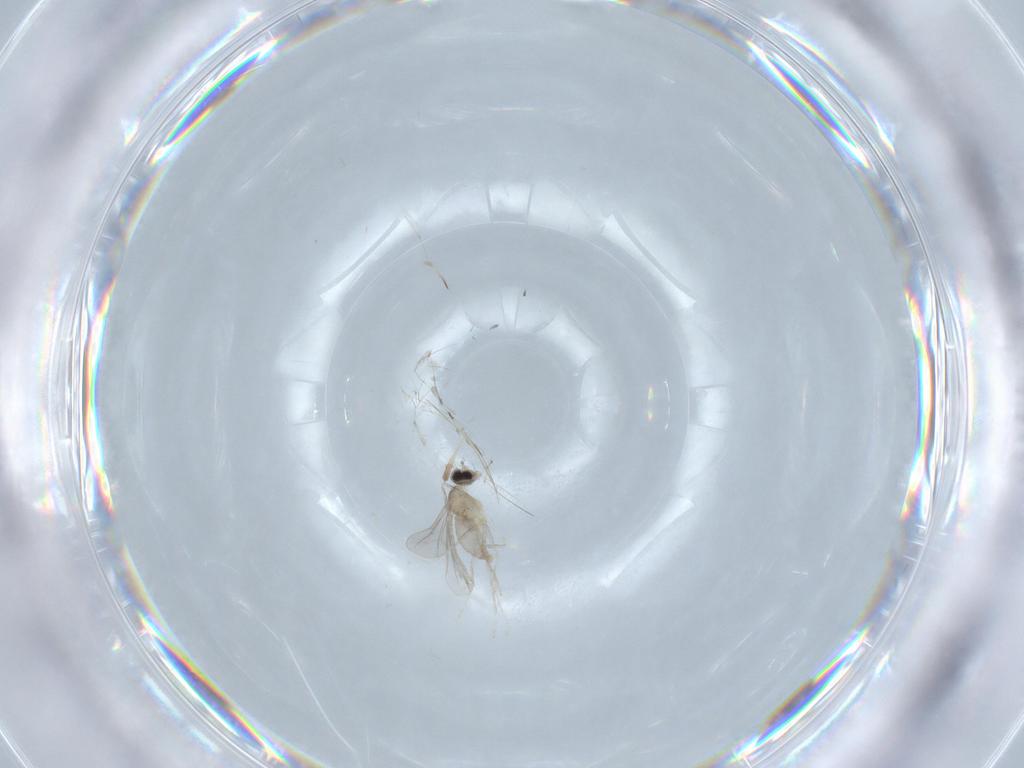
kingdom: Animalia
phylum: Arthropoda
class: Insecta
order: Diptera
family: Cecidomyiidae
